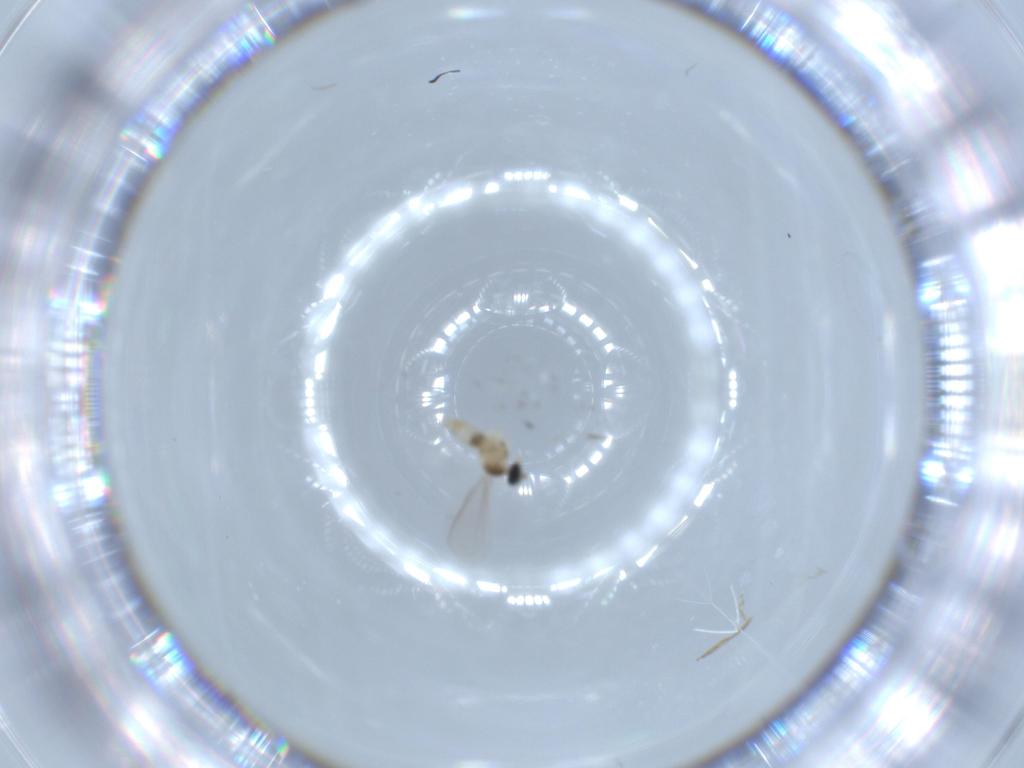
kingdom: Animalia
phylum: Arthropoda
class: Insecta
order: Diptera
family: Cecidomyiidae
